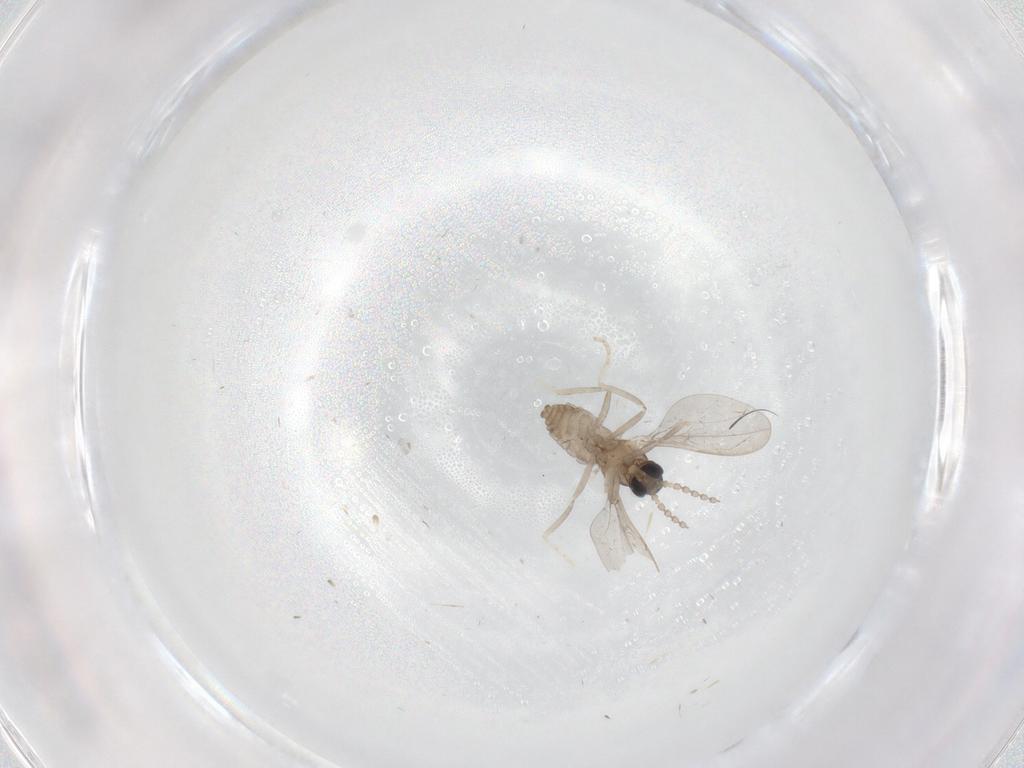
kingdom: Animalia
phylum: Arthropoda
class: Insecta
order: Diptera
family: Cecidomyiidae
